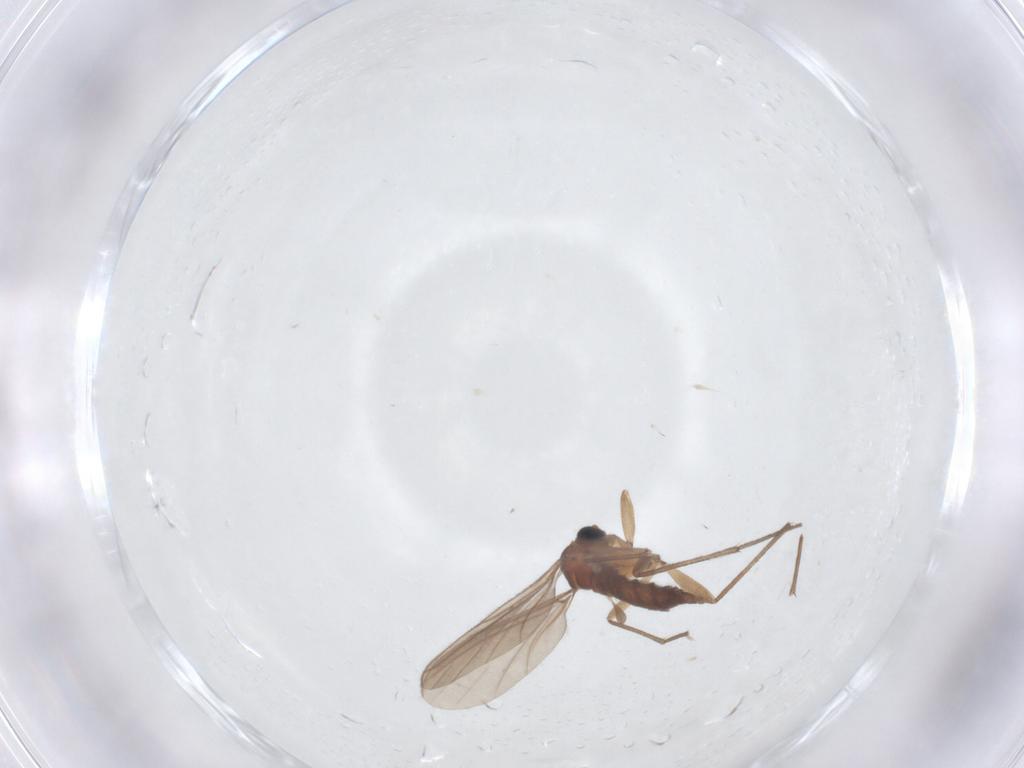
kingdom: Animalia
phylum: Arthropoda
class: Insecta
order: Diptera
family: Sciaridae
